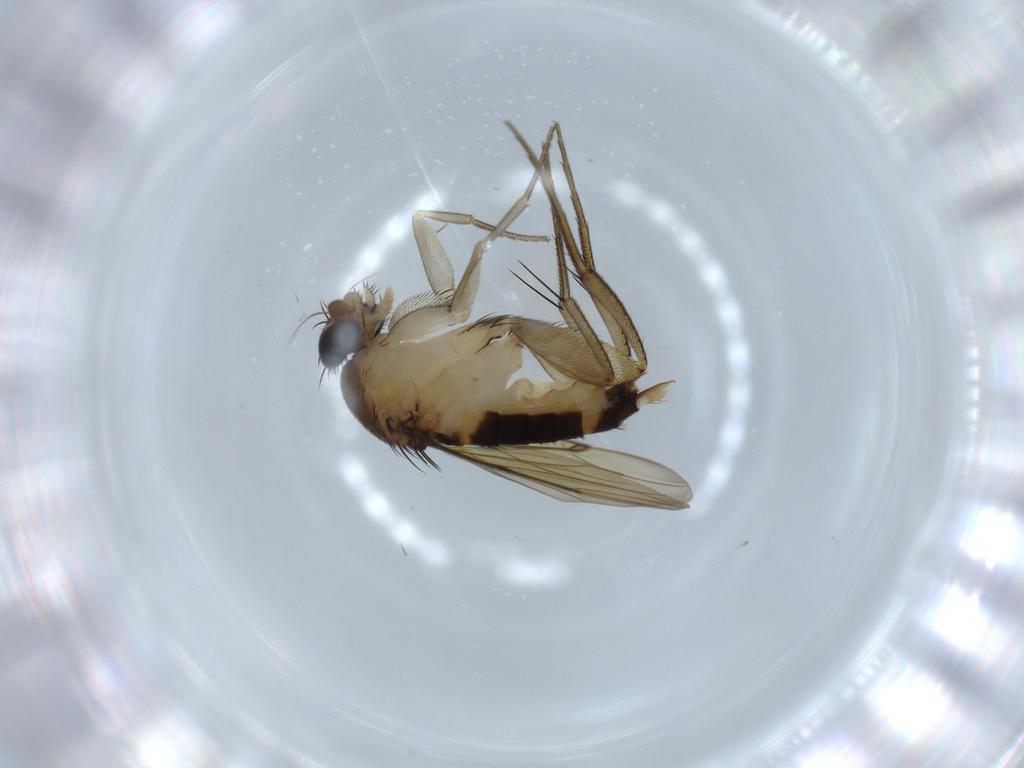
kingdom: Animalia
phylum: Arthropoda
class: Insecta
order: Diptera
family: Phoridae
